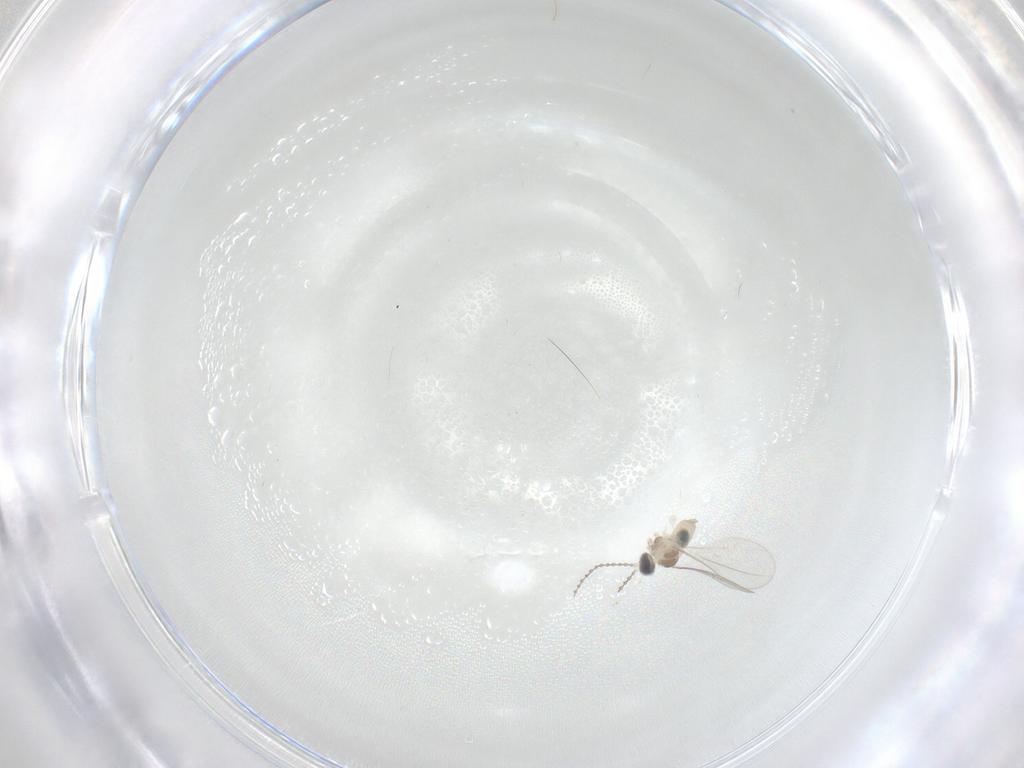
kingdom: Animalia
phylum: Arthropoda
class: Insecta
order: Diptera
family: Cecidomyiidae
